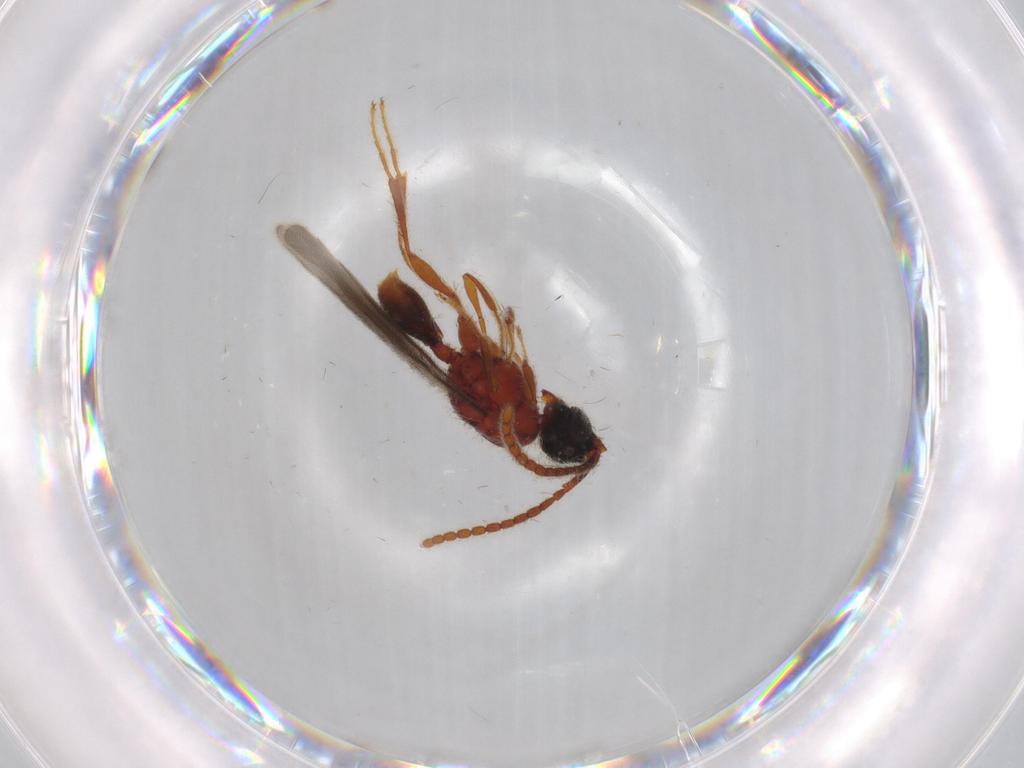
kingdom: Animalia
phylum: Arthropoda
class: Insecta
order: Hymenoptera
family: Diapriidae
